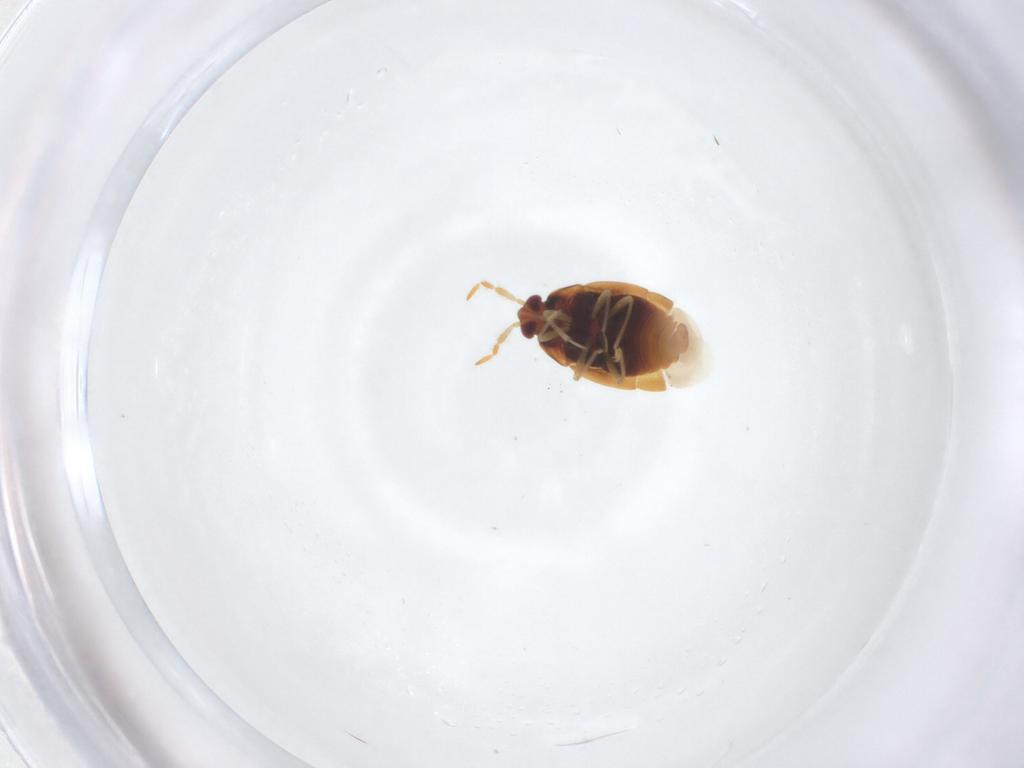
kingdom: Animalia
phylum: Arthropoda
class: Insecta
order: Hemiptera
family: Anthocoridae
